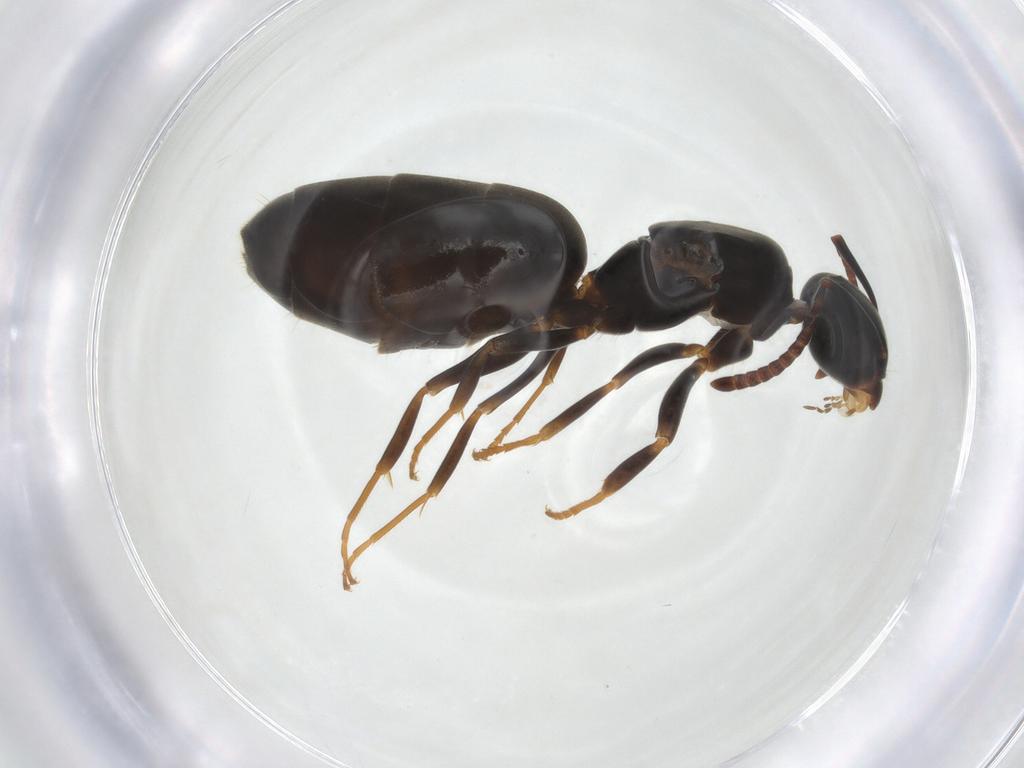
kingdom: Animalia
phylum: Arthropoda
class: Insecta
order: Hymenoptera
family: Formicidae
